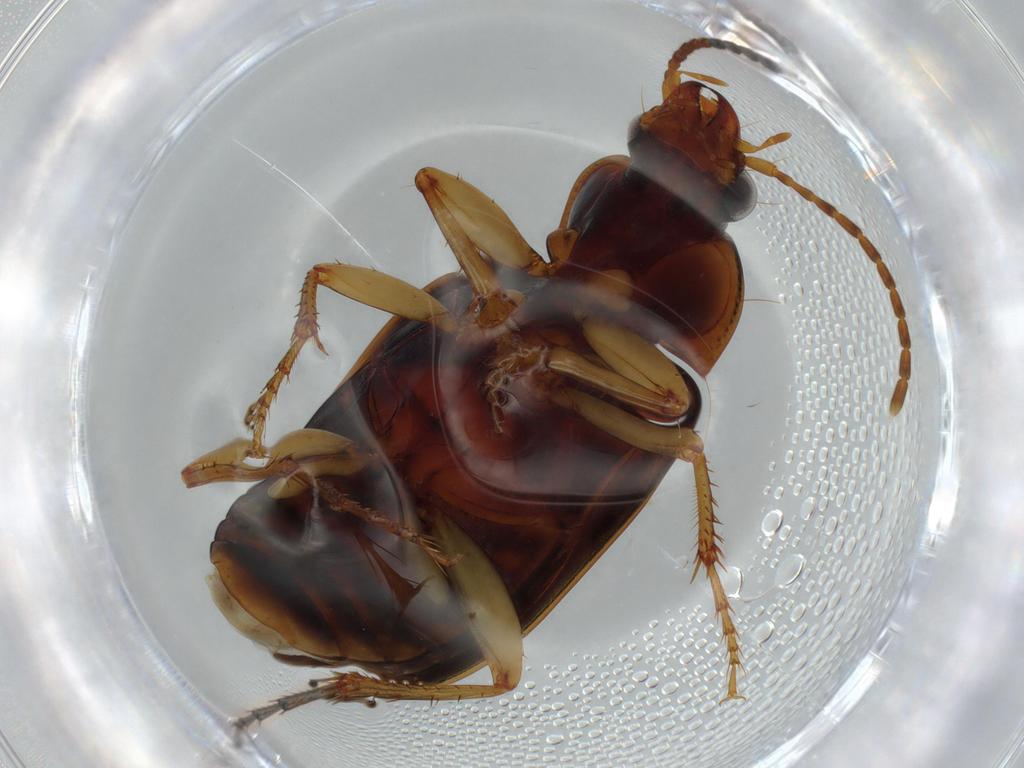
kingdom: Animalia
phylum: Arthropoda
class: Insecta
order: Coleoptera
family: Carabidae
